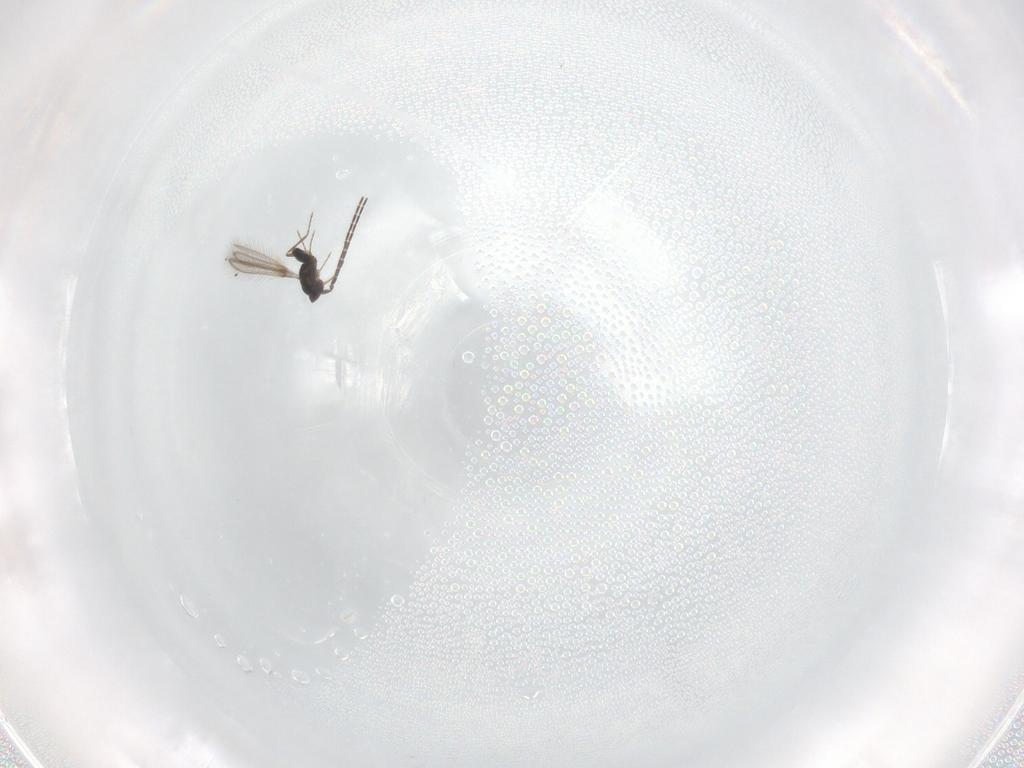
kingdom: Animalia
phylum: Arthropoda
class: Insecta
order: Hymenoptera
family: Mymaridae
